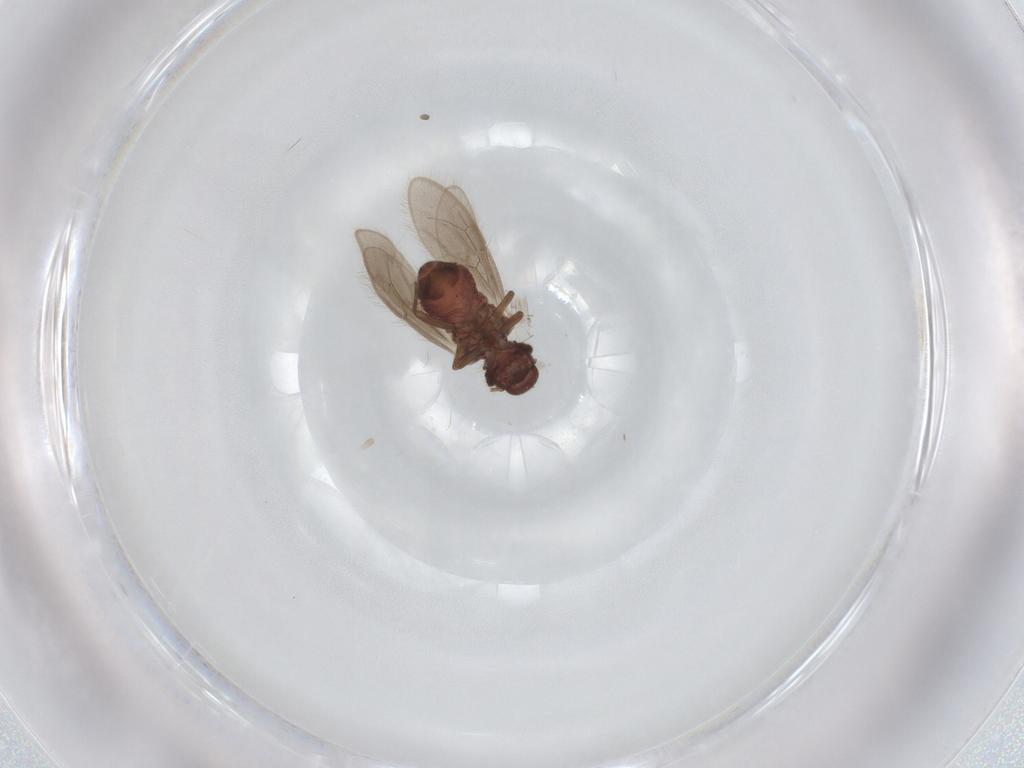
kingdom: Animalia
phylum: Arthropoda
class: Insecta
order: Psocodea
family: Archipsocidae
